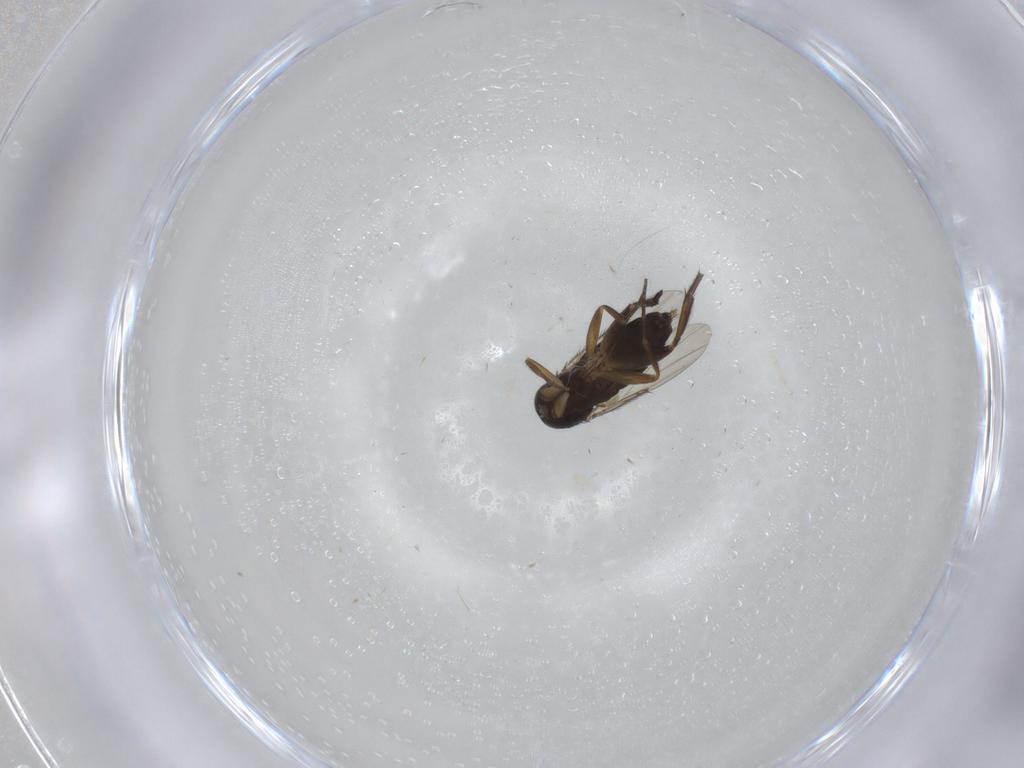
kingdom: Animalia
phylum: Arthropoda
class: Insecta
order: Diptera
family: Phoridae
